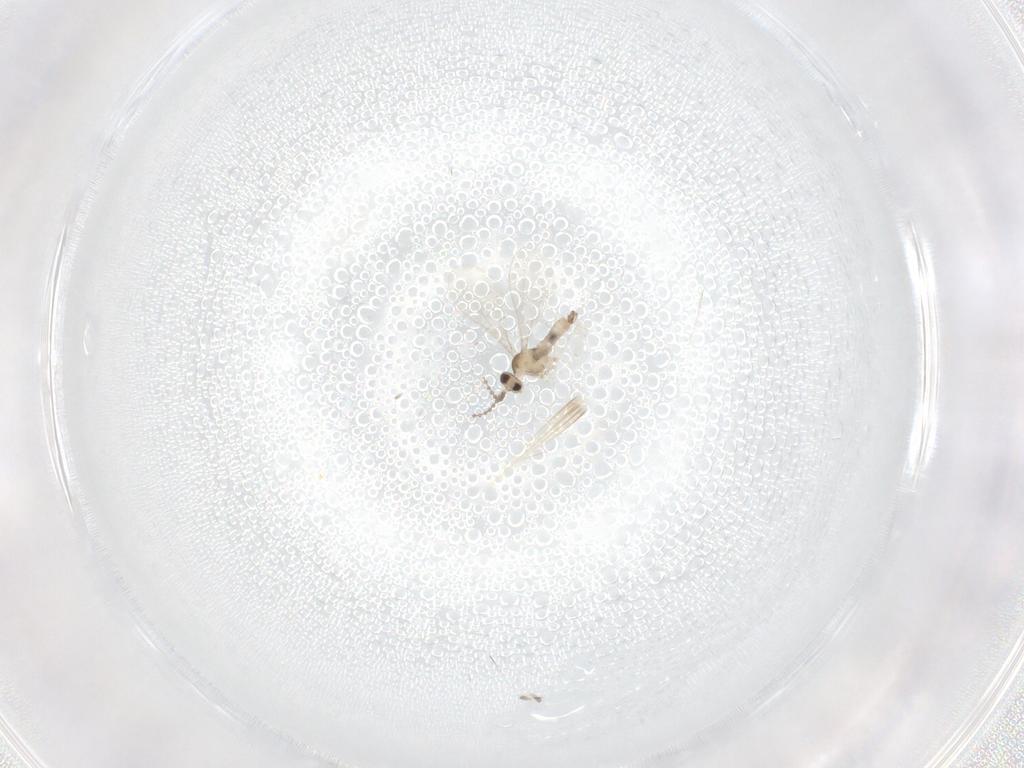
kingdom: Animalia
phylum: Arthropoda
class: Insecta
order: Diptera
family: Cecidomyiidae
